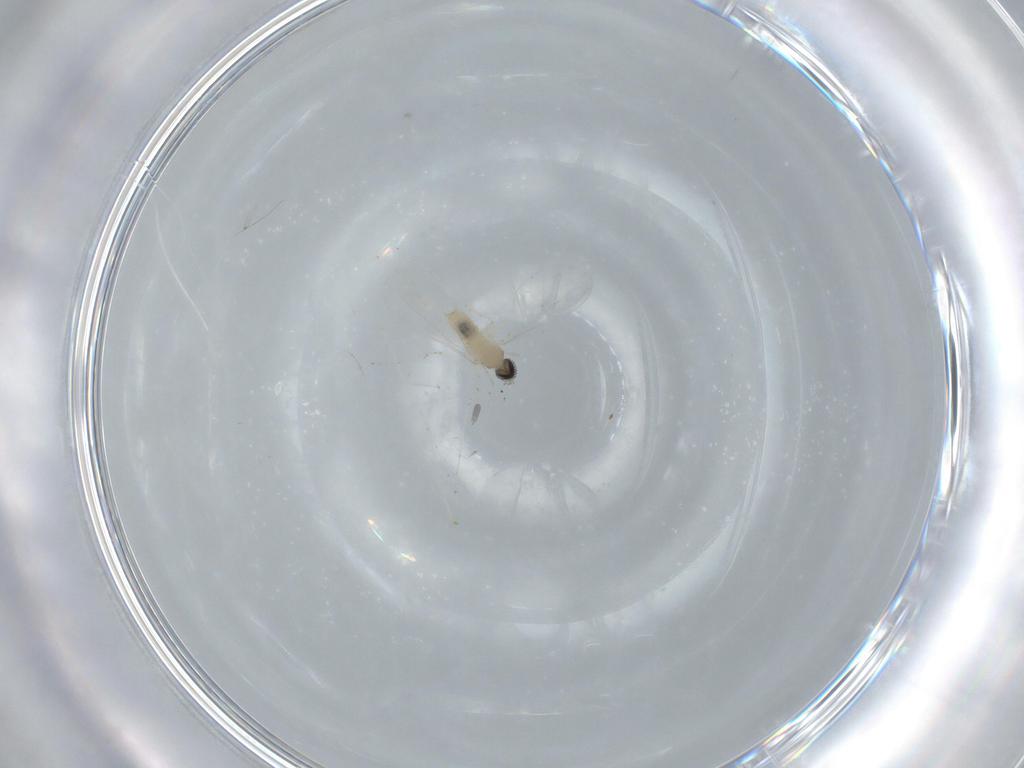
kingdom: Animalia
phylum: Arthropoda
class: Insecta
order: Diptera
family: Cecidomyiidae
